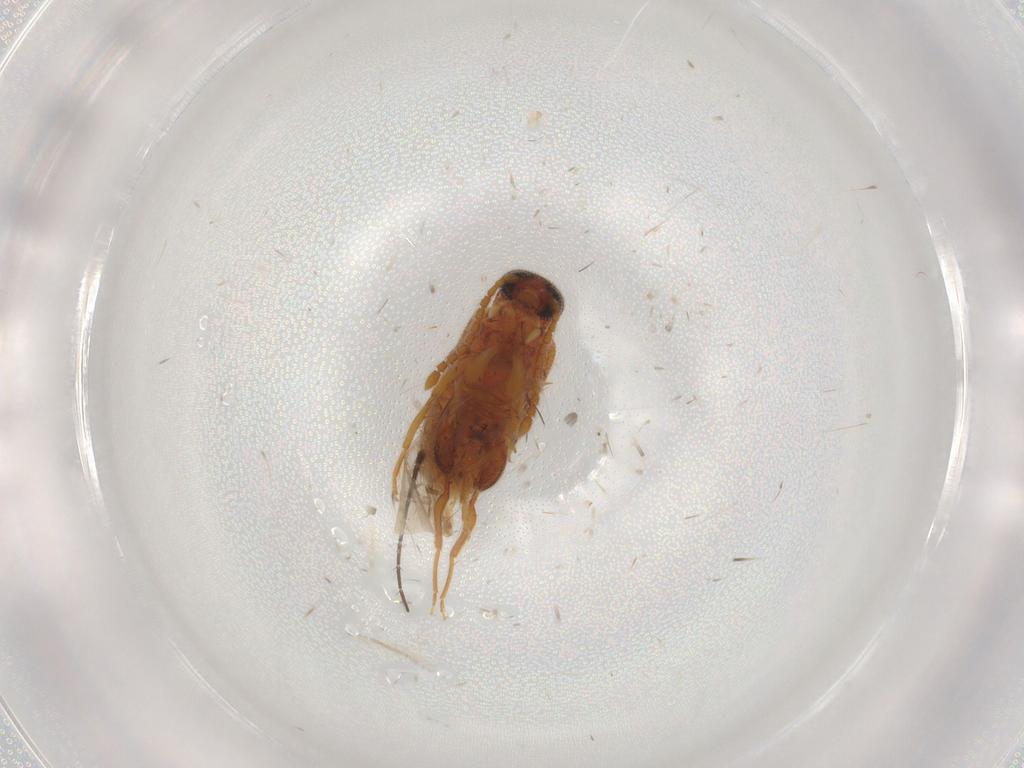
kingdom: Animalia
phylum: Arthropoda
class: Insecta
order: Coleoptera
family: Aderidae
